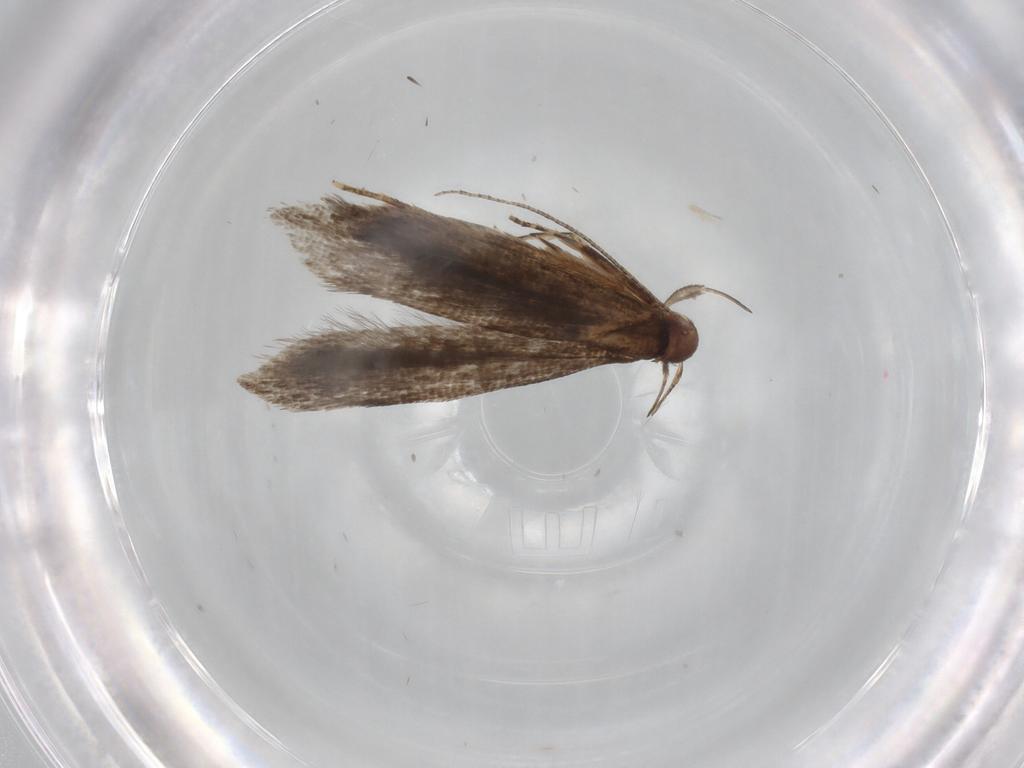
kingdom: Animalia
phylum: Arthropoda
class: Insecta
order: Lepidoptera
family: Gelechiidae
